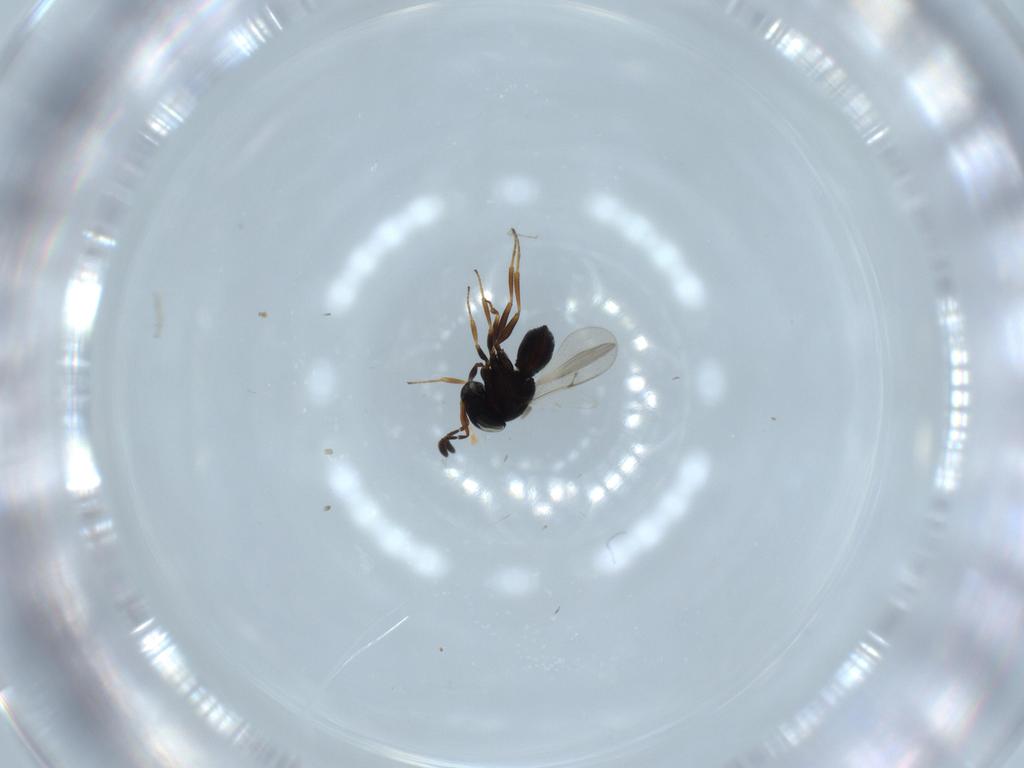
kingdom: Animalia
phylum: Arthropoda
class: Insecta
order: Hymenoptera
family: Scelionidae
